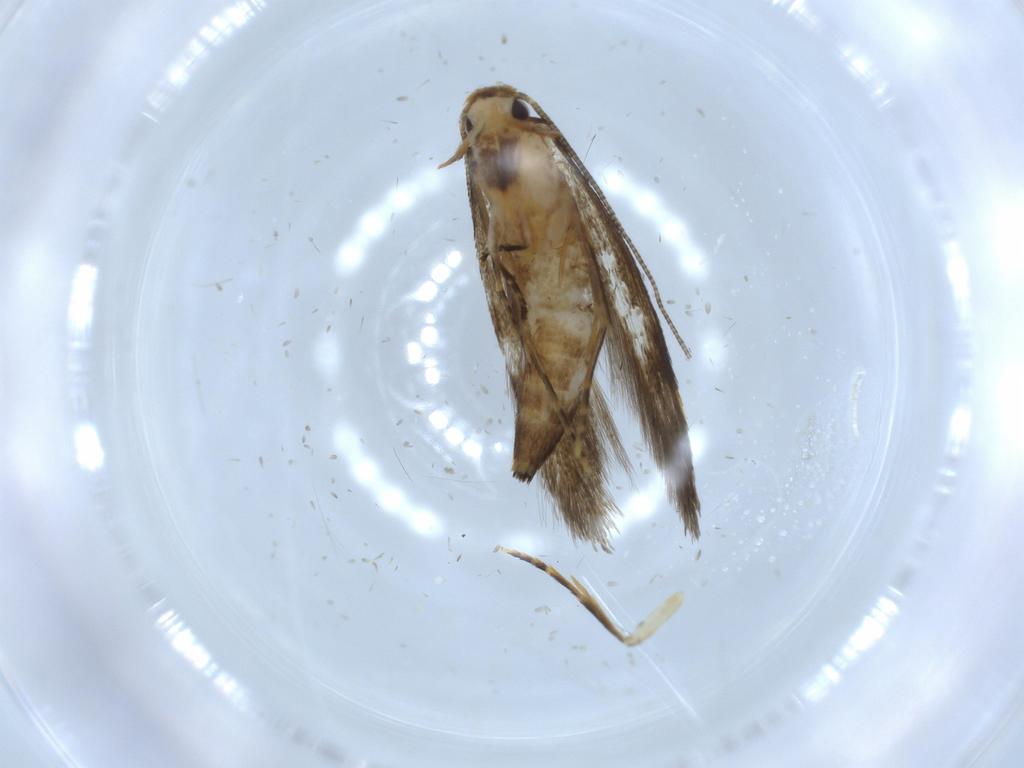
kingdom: Animalia
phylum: Arthropoda
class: Insecta
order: Lepidoptera
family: Tineidae
